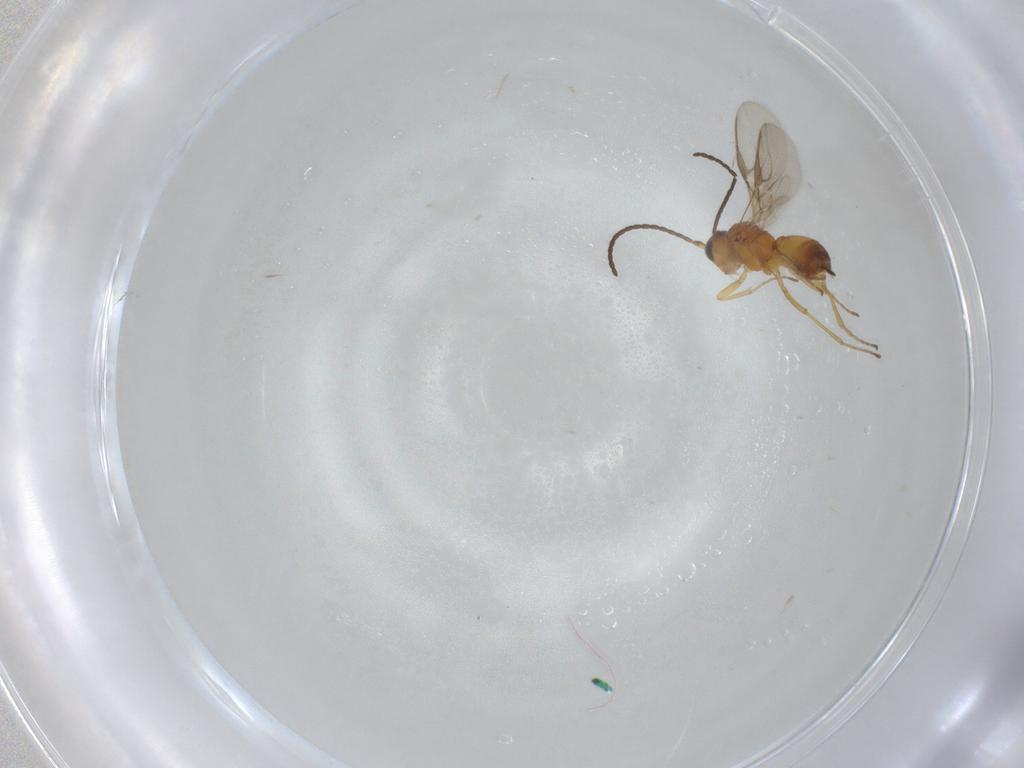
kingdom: Animalia
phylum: Arthropoda
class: Insecta
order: Hymenoptera
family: Braconidae
